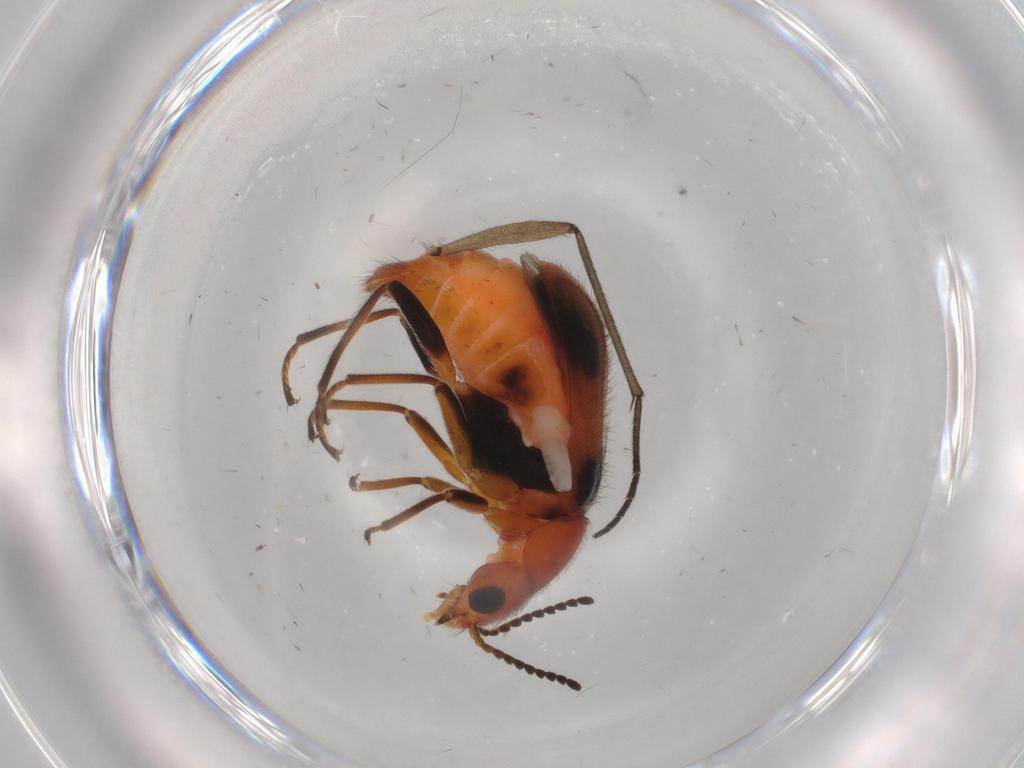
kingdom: Animalia
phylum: Arthropoda
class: Insecta
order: Coleoptera
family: Melyridae
